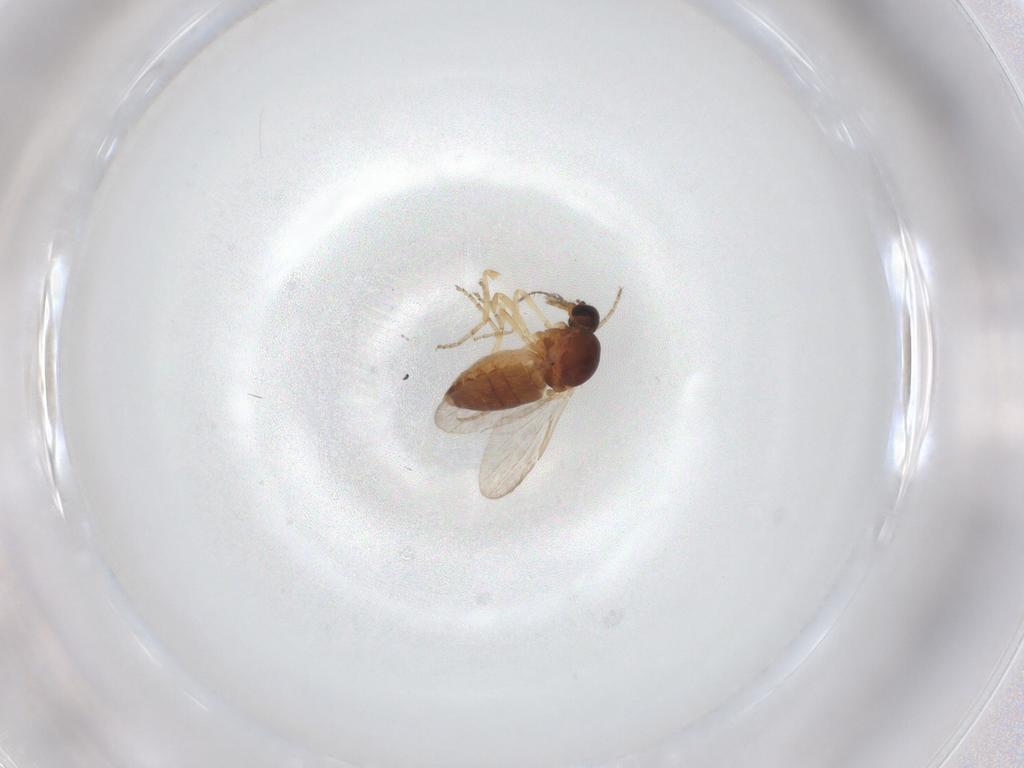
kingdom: Animalia
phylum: Arthropoda
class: Insecta
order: Diptera
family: Ceratopogonidae
